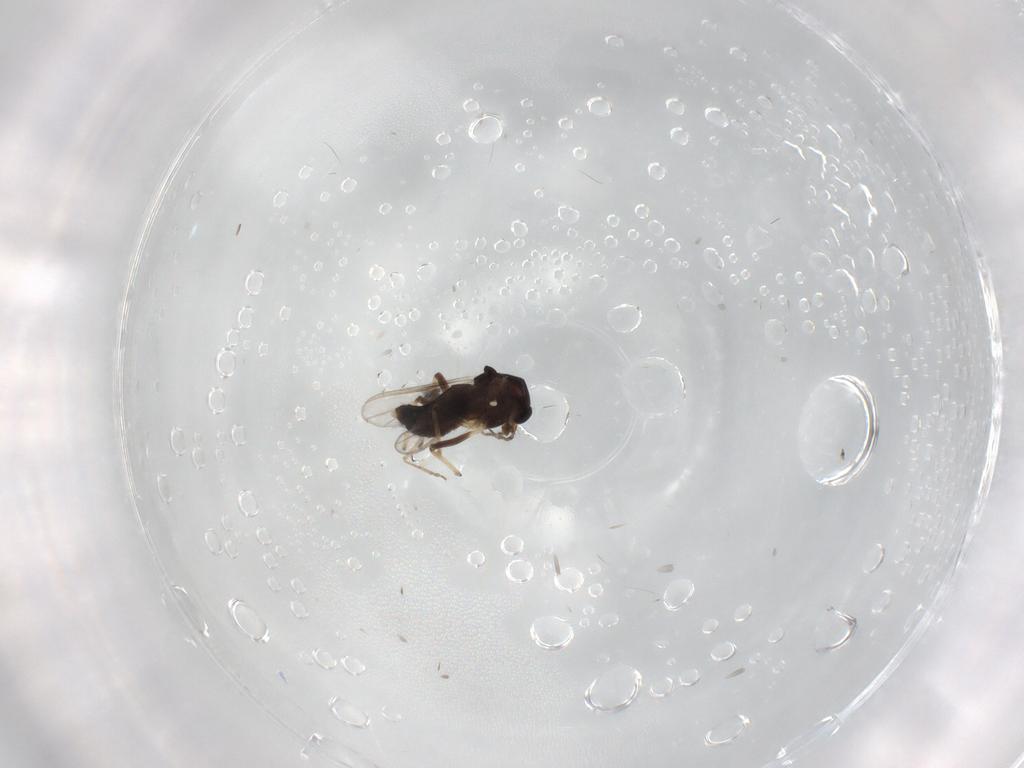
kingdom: Animalia
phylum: Arthropoda
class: Insecta
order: Diptera
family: Chironomidae
